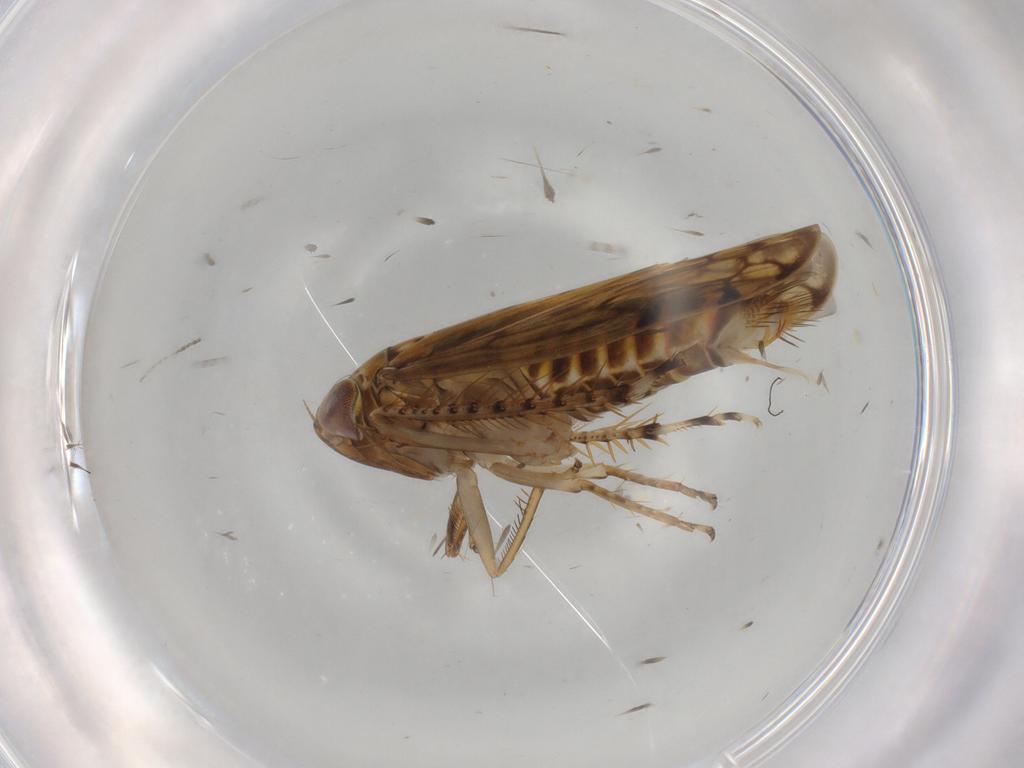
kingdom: Animalia
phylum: Arthropoda
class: Insecta
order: Hemiptera
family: Cicadellidae
